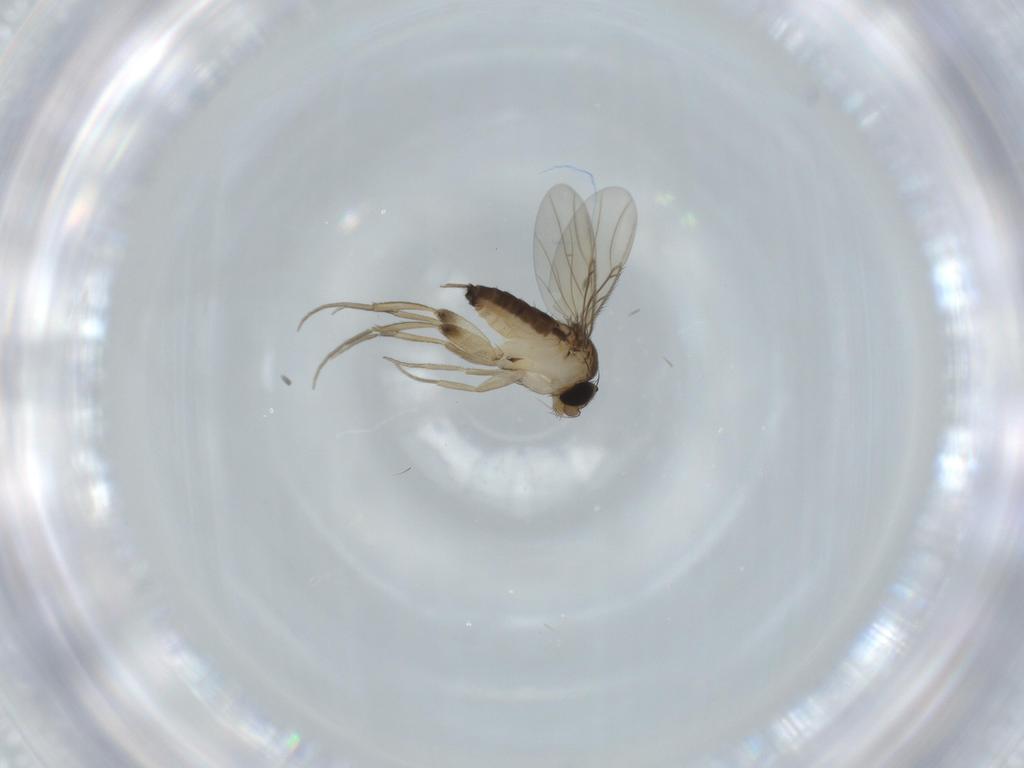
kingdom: Animalia
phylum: Arthropoda
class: Insecta
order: Diptera
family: Phoridae
